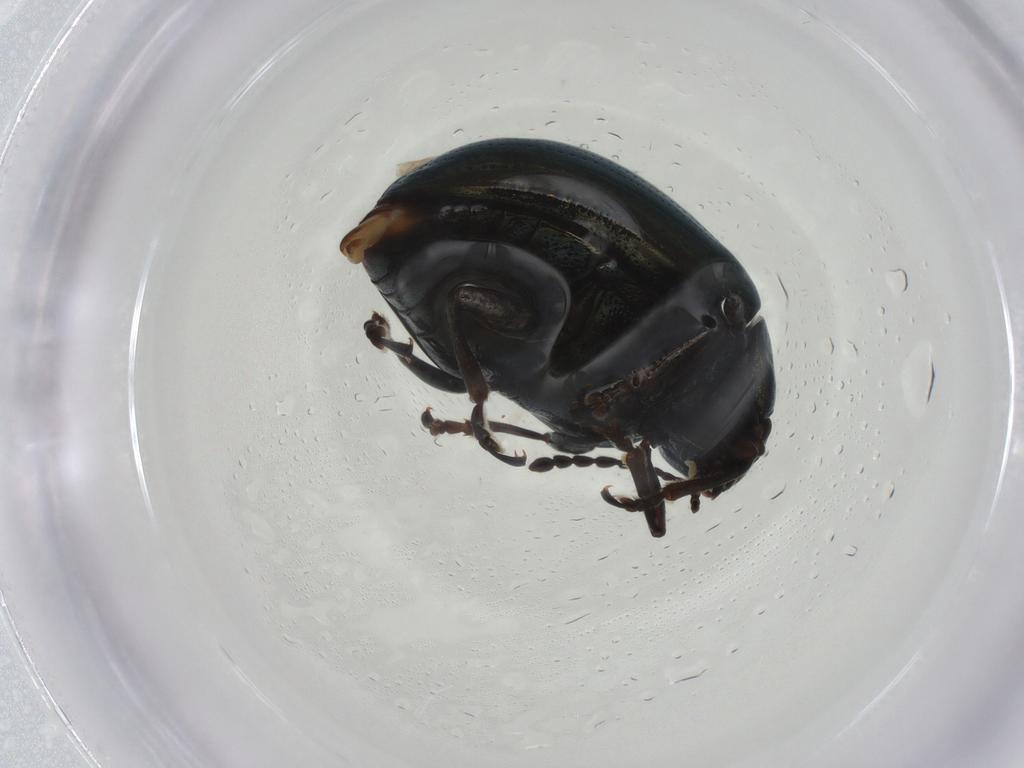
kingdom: Animalia
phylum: Arthropoda
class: Insecta
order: Coleoptera
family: Chrysomelidae
